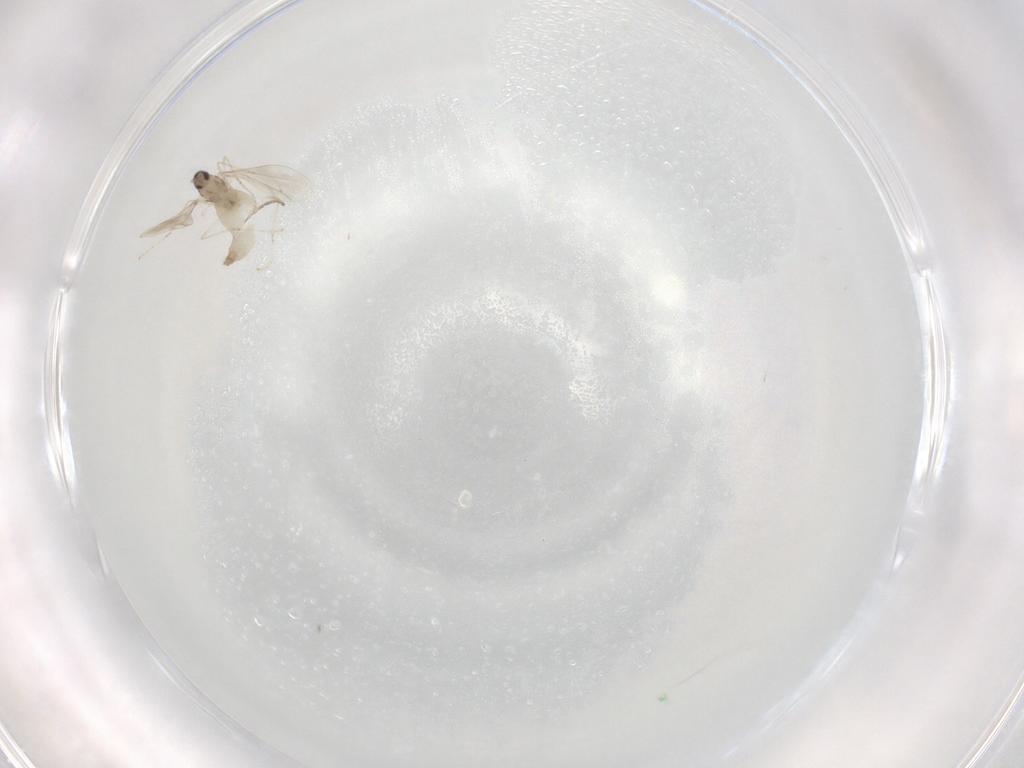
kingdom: Animalia
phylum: Arthropoda
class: Insecta
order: Diptera
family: Cecidomyiidae
